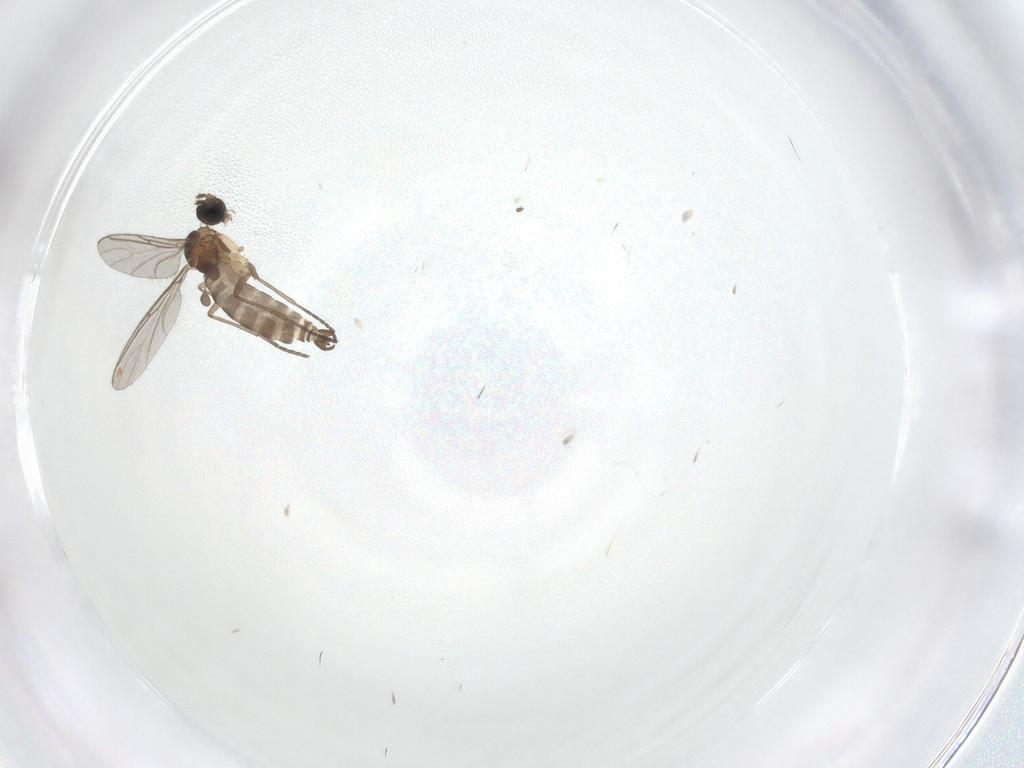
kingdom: Animalia
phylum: Arthropoda
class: Insecta
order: Diptera
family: Sciaridae
